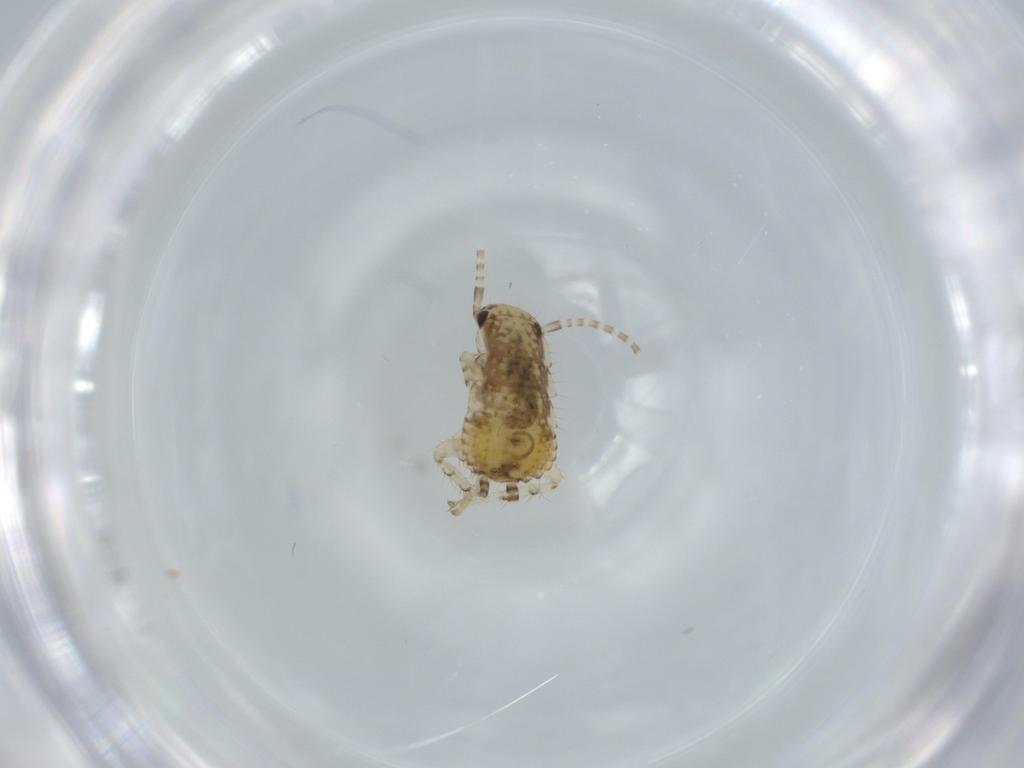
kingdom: Animalia
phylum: Arthropoda
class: Insecta
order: Blattodea
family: Ectobiidae
